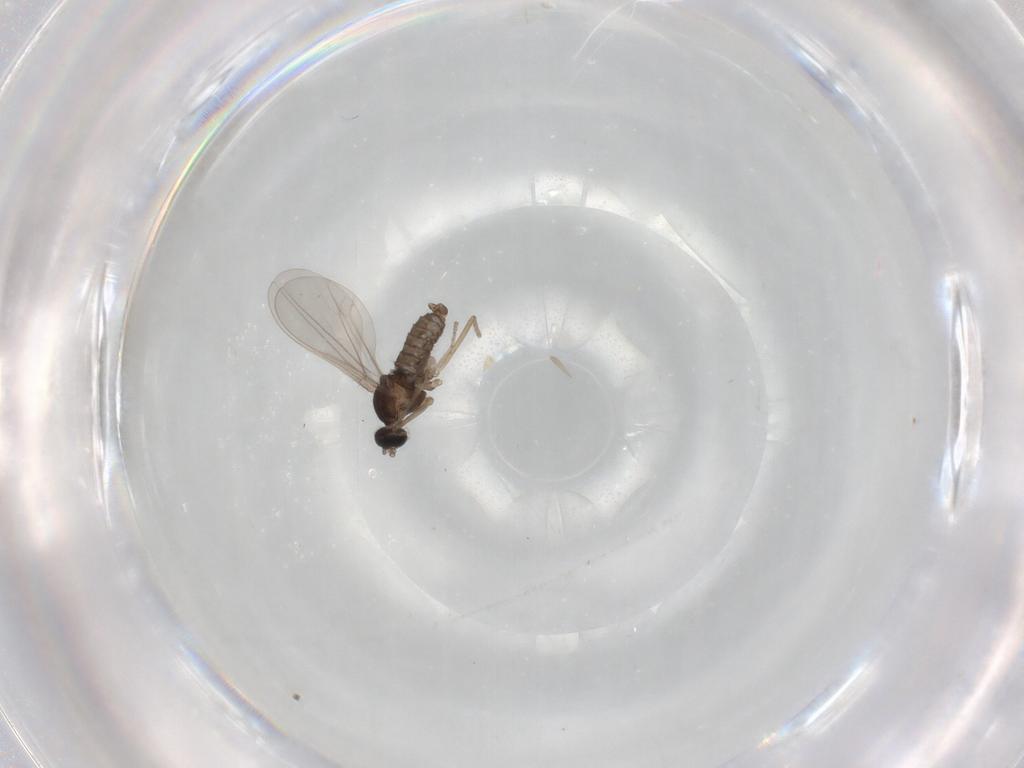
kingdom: Animalia
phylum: Arthropoda
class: Insecta
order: Diptera
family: Cecidomyiidae
